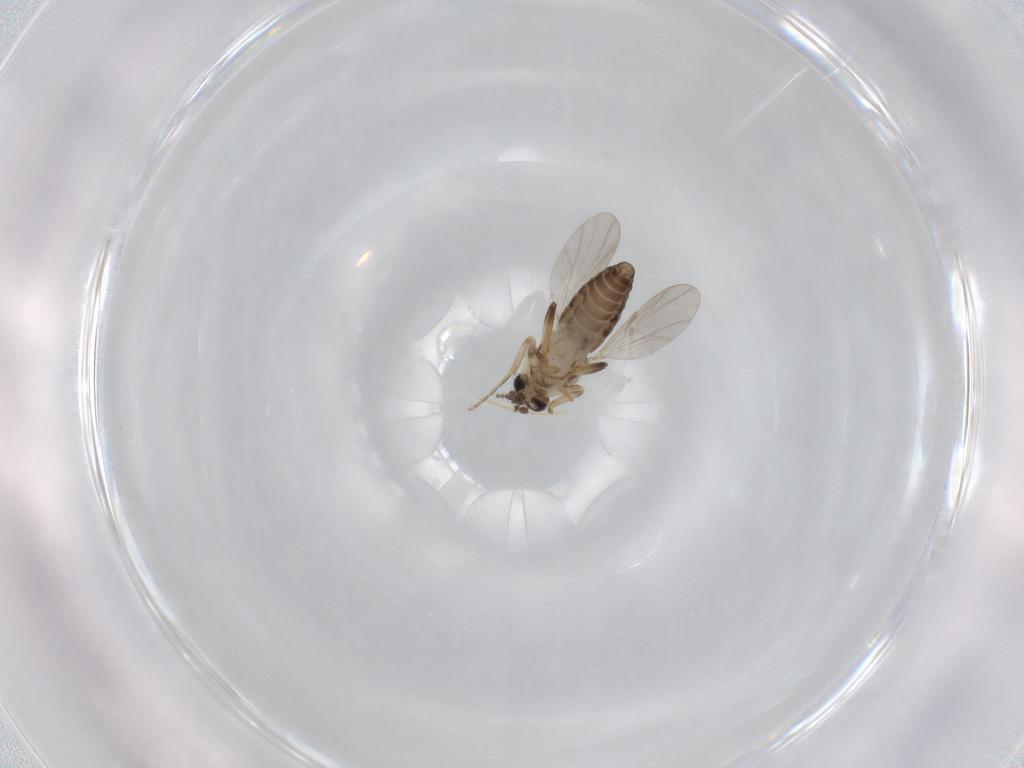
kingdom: Animalia
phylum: Arthropoda
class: Insecta
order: Diptera
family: Ceratopogonidae
